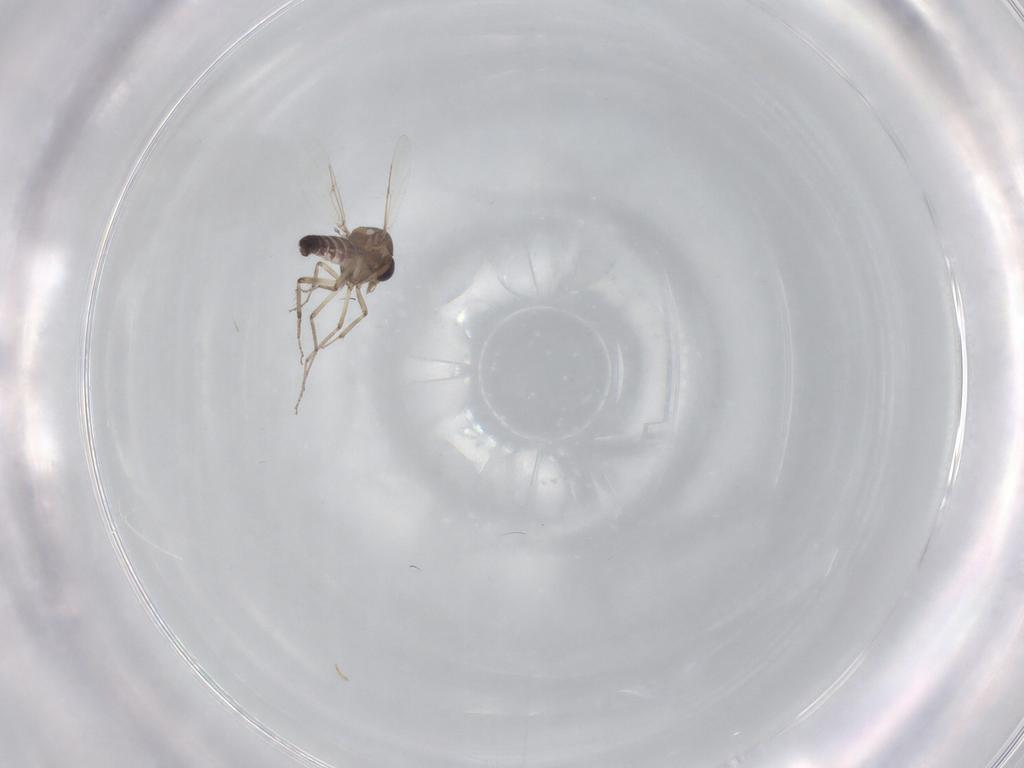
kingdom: Animalia
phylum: Arthropoda
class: Insecta
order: Diptera
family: Ceratopogonidae
